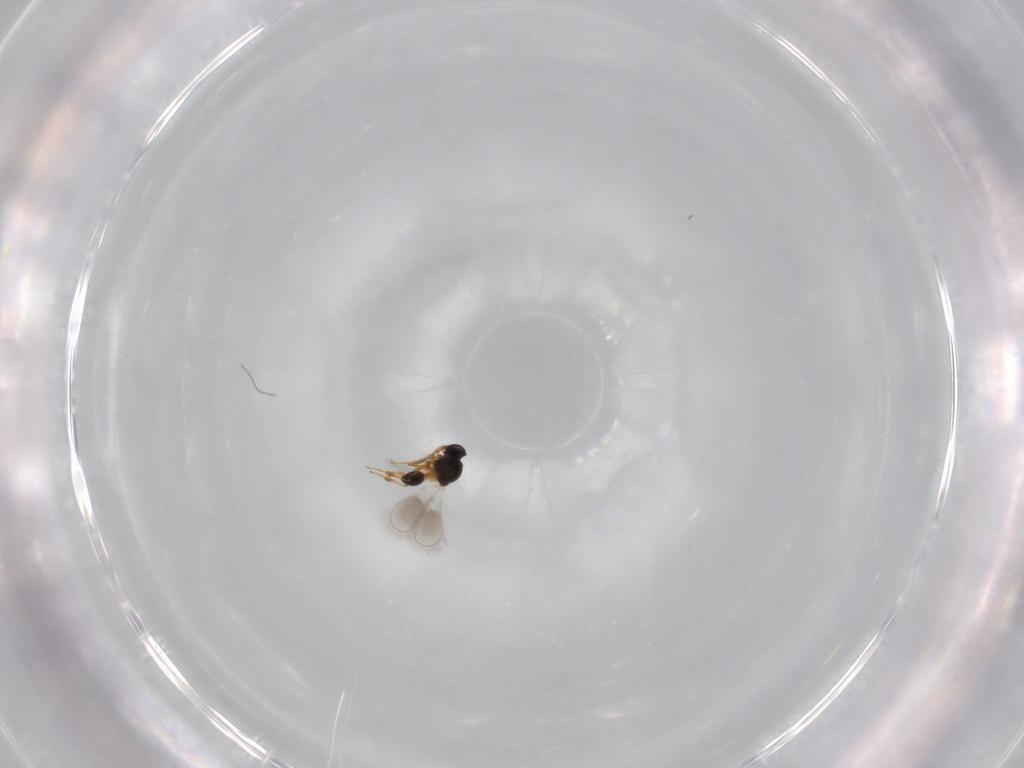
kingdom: Animalia
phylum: Arthropoda
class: Insecta
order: Hymenoptera
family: Platygastridae
